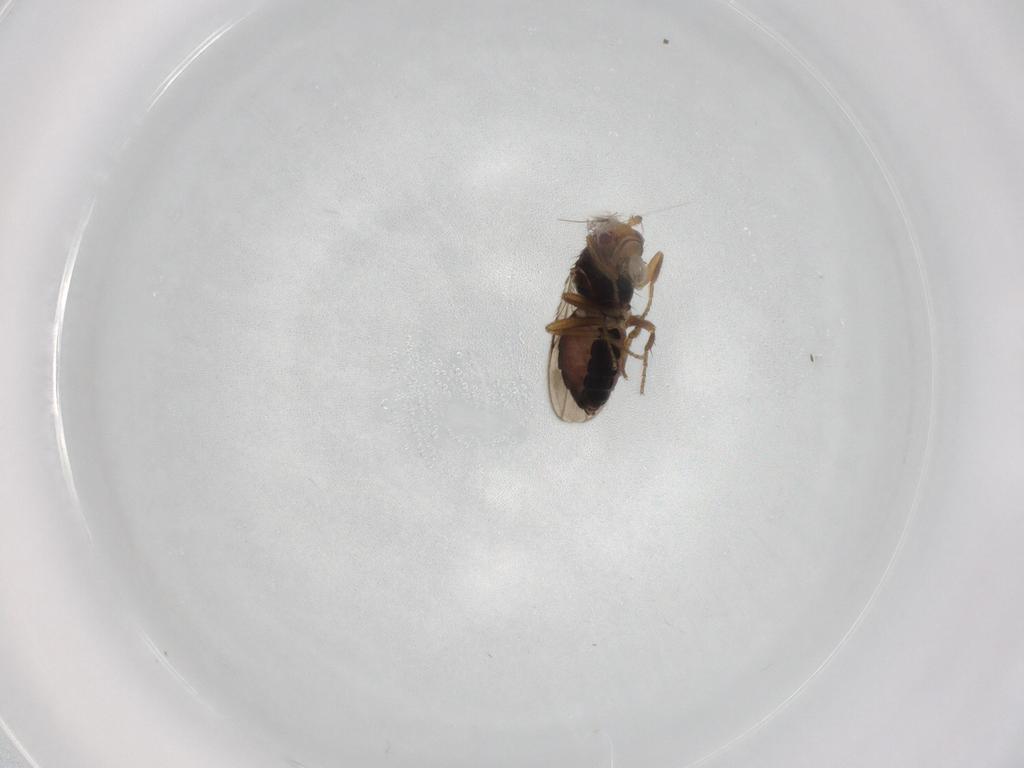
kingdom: Animalia
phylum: Arthropoda
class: Insecta
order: Diptera
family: Sphaeroceridae
